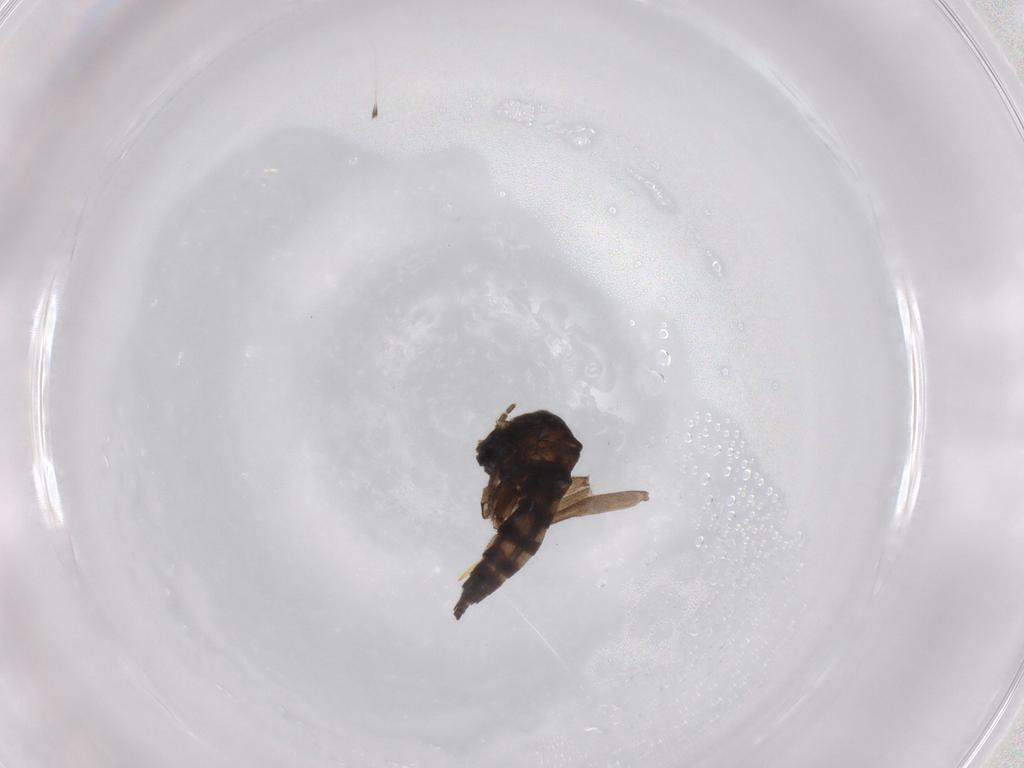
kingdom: Animalia
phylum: Arthropoda
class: Insecta
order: Diptera
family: Sciaridae
